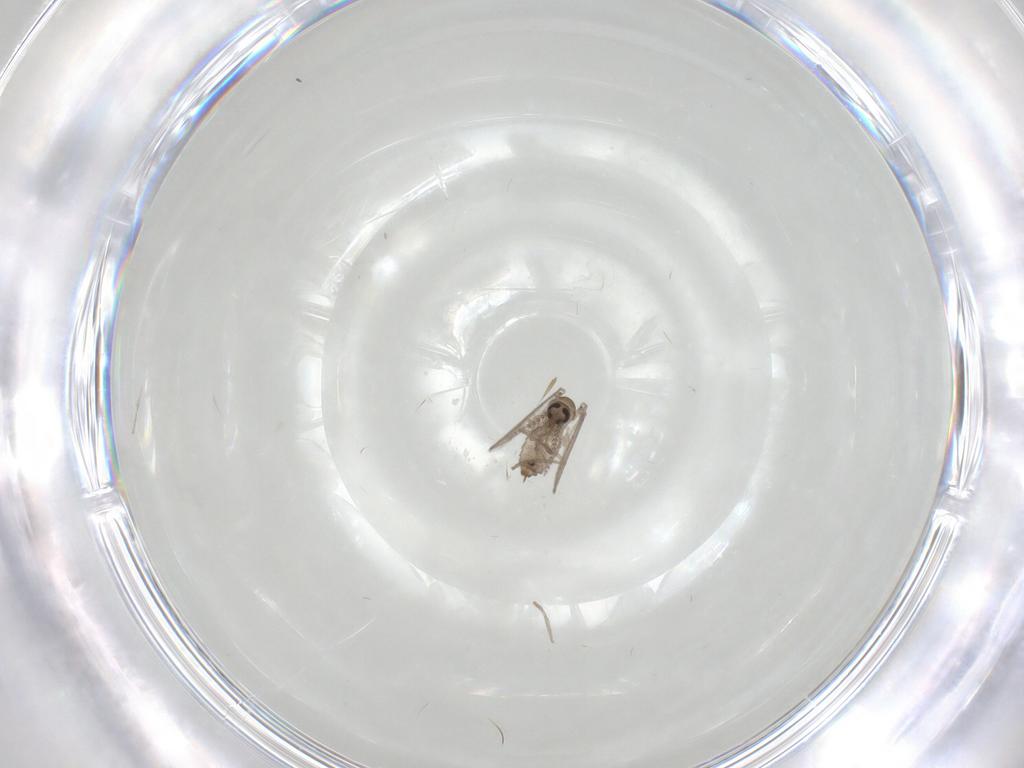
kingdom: Animalia
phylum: Arthropoda
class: Insecta
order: Diptera
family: Psychodidae
